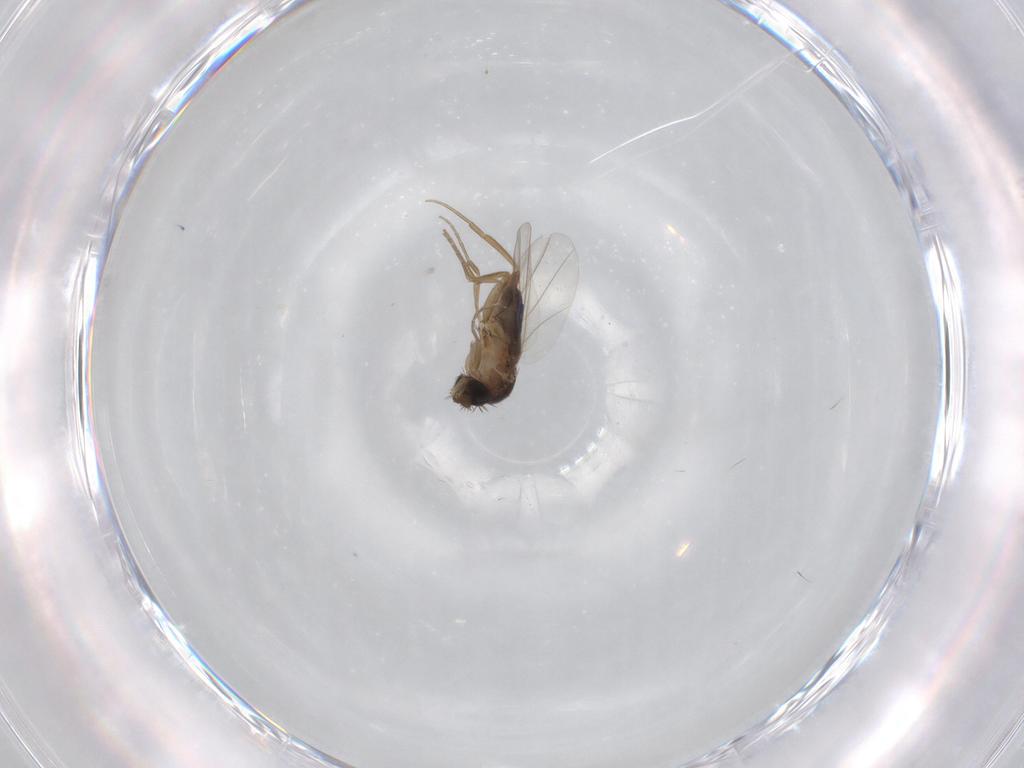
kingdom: Animalia
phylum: Arthropoda
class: Insecta
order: Diptera
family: Phoridae
